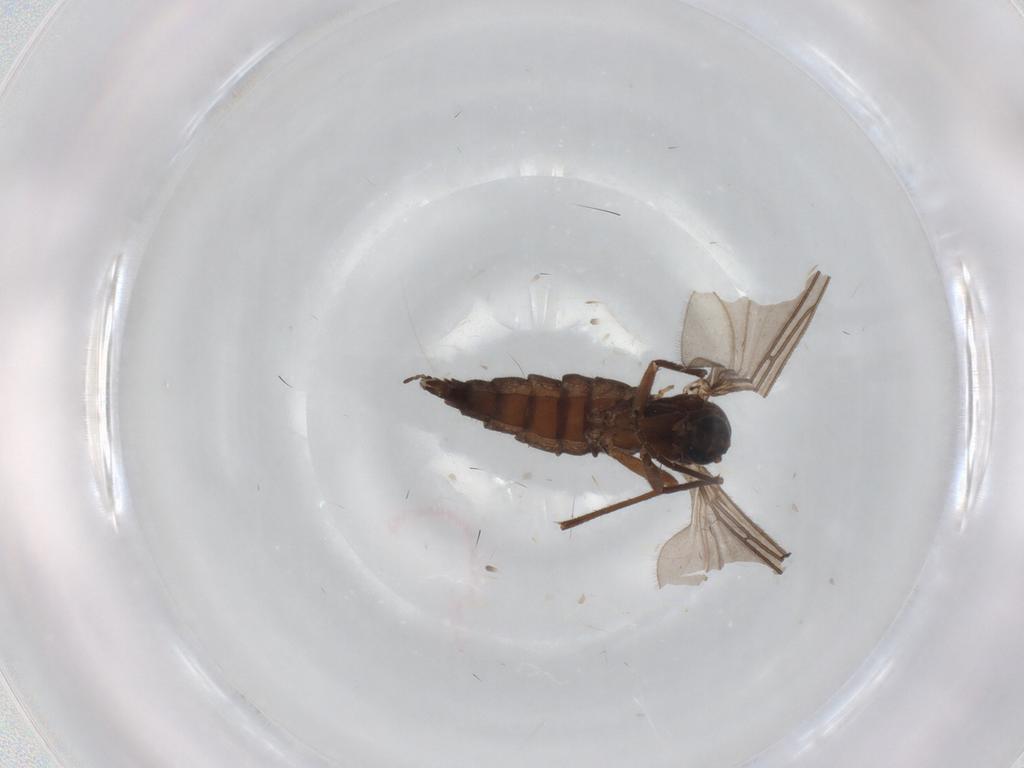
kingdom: Animalia
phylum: Arthropoda
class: Insecta
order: Diptera
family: Sciaridae
